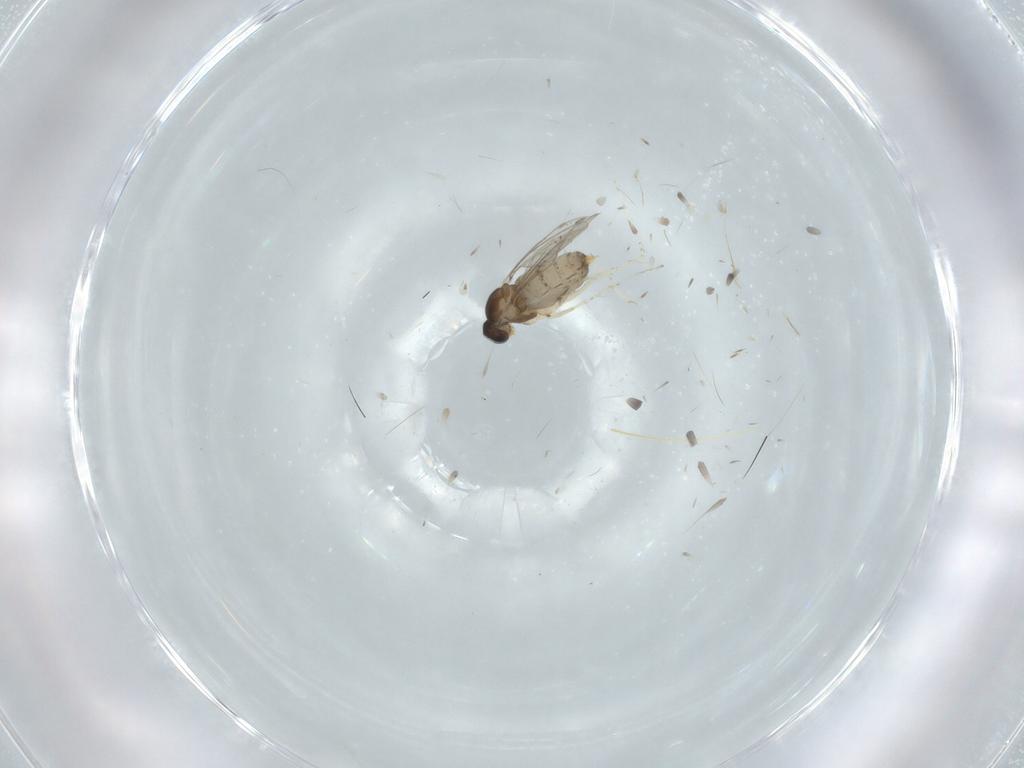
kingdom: Animalia
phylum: Arthropoda
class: Insecta
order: Diptera
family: Cecidomyiidae
